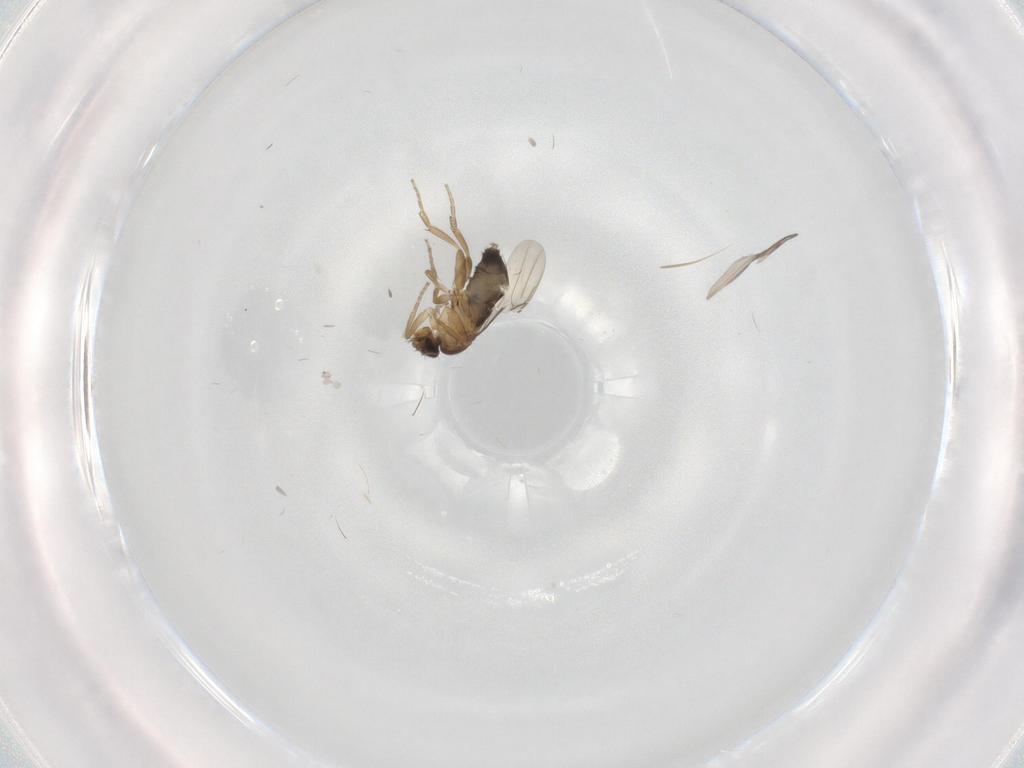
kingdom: Animalia
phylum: Arthropoda
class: Insecta
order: Diptera
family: Phoridae
